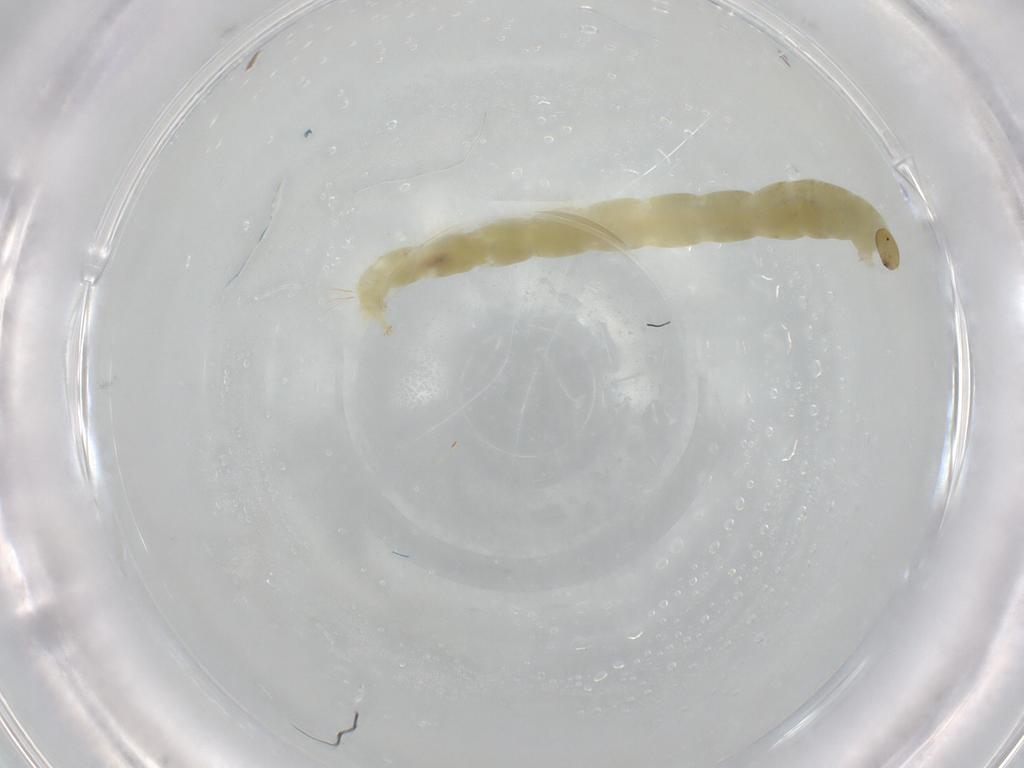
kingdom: Animalia
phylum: Arthropoda
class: Insecta
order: Diptera
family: Chironomidae
